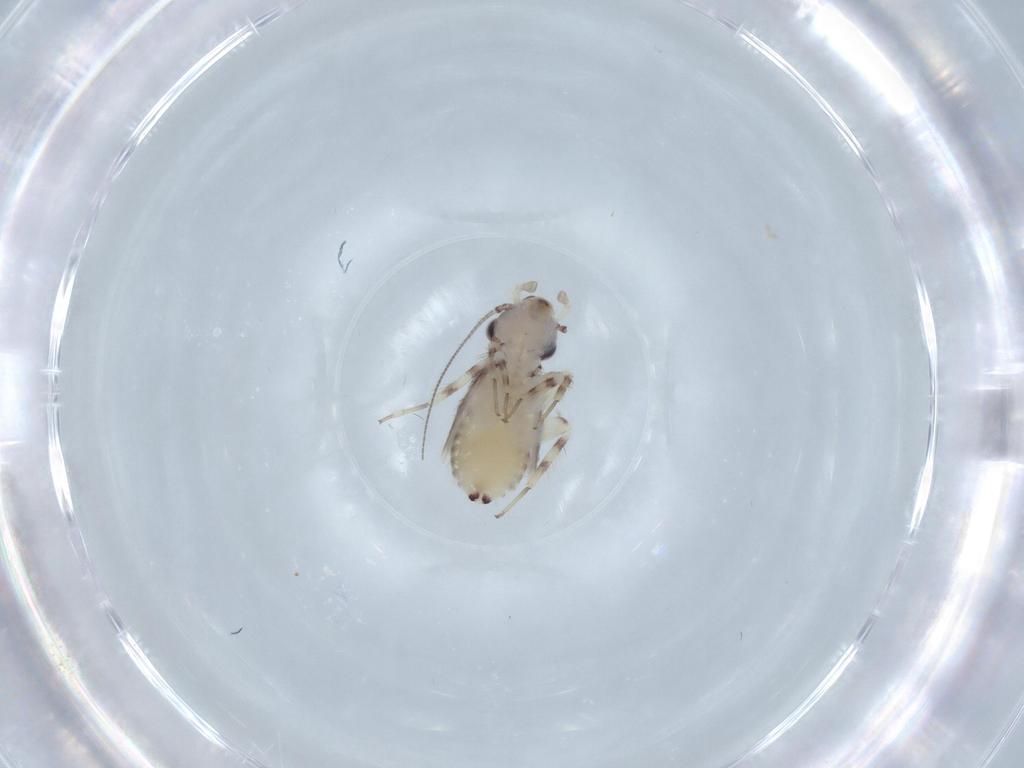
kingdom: Animalia
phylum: Arthropoda
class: Insecta
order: Psocodea
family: Lepidopsocidae
